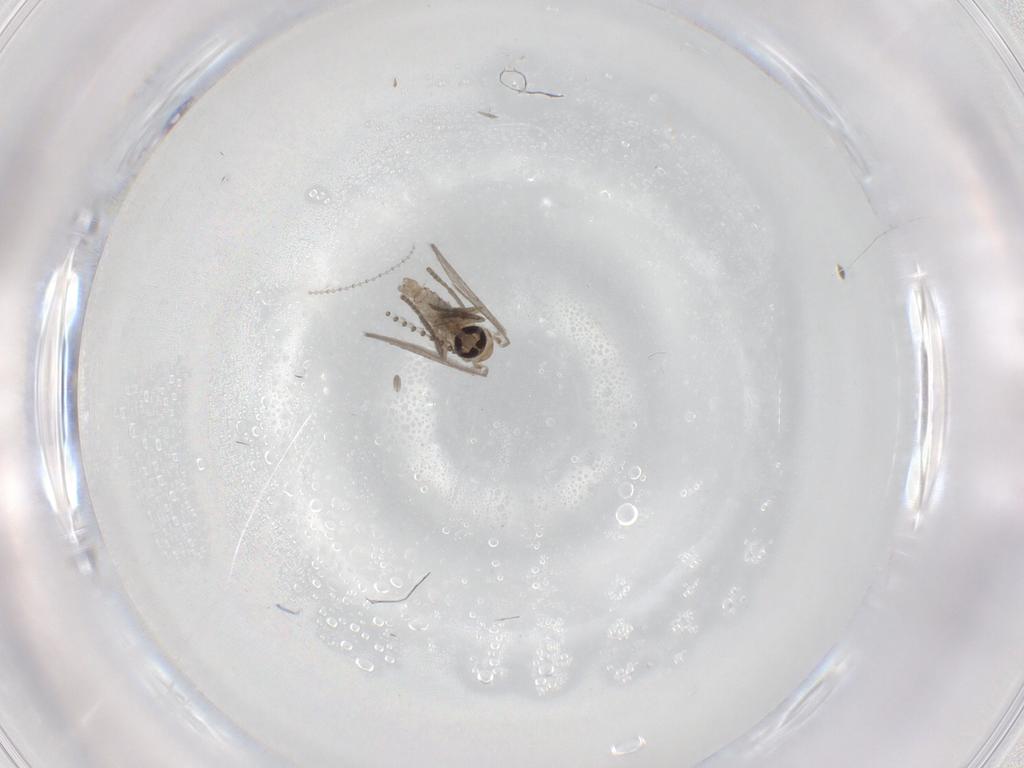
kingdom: Animalia
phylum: Arthropoda
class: Insecta
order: Diptera
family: Psychodidae
